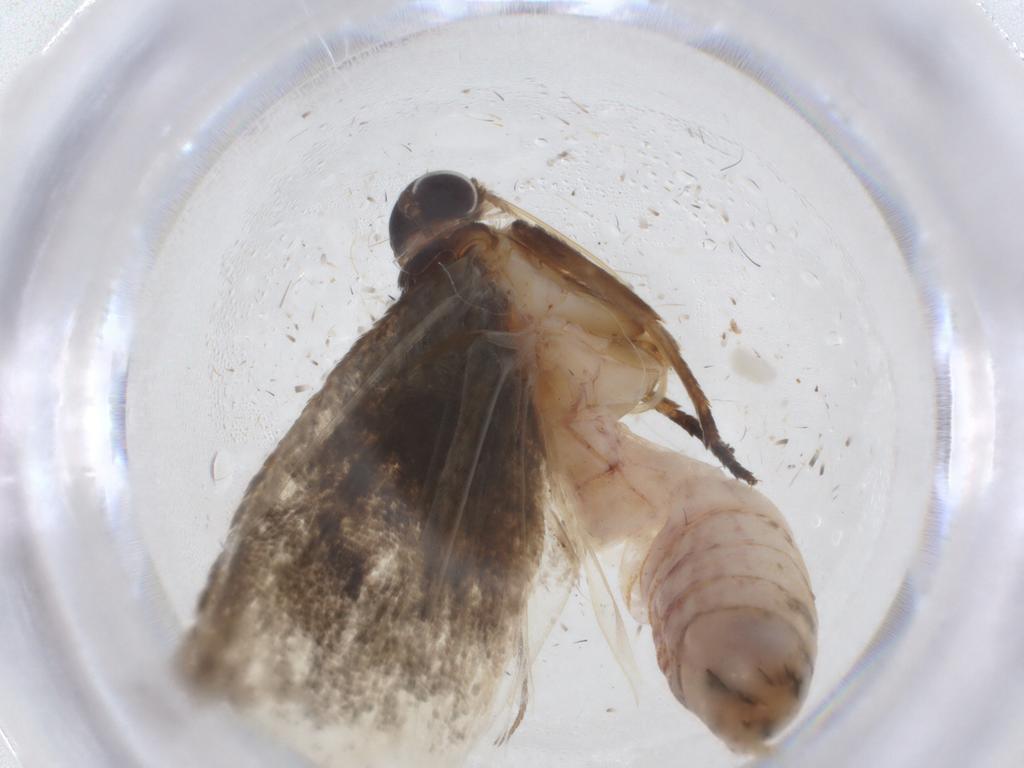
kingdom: Animalia
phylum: Arthropoda
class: Insecta
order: Lepidoptera
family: Oecophoridae
